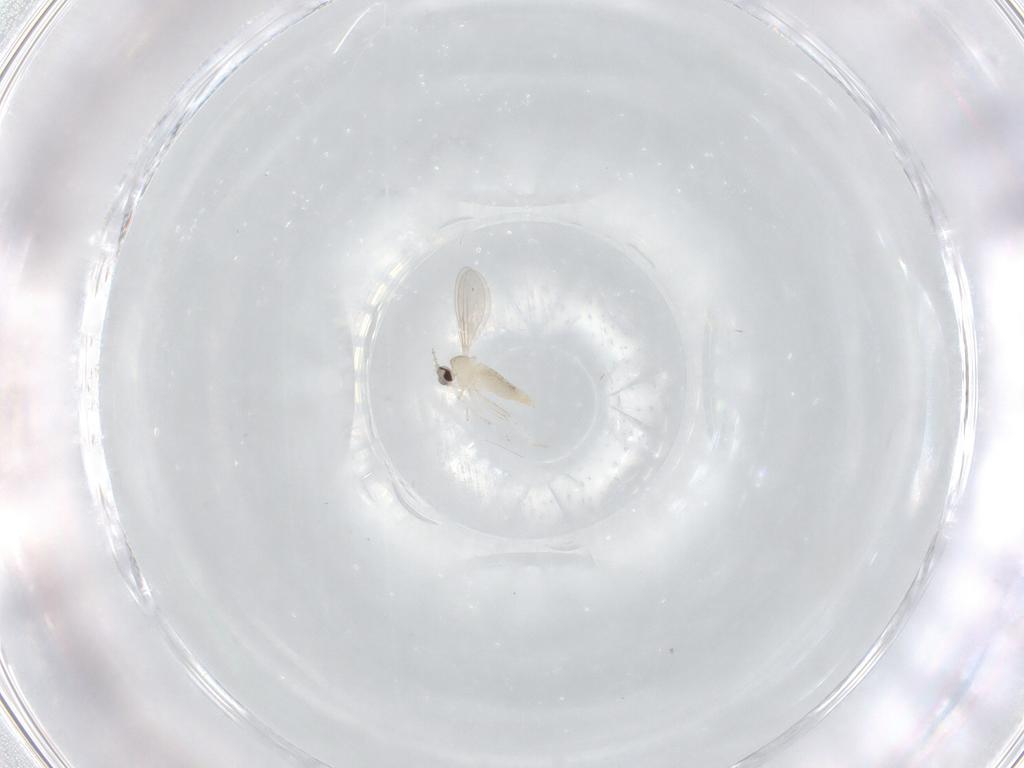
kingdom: Animalia
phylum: Arthropoda
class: Insecta
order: Diptera
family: Cecidomyiidae
